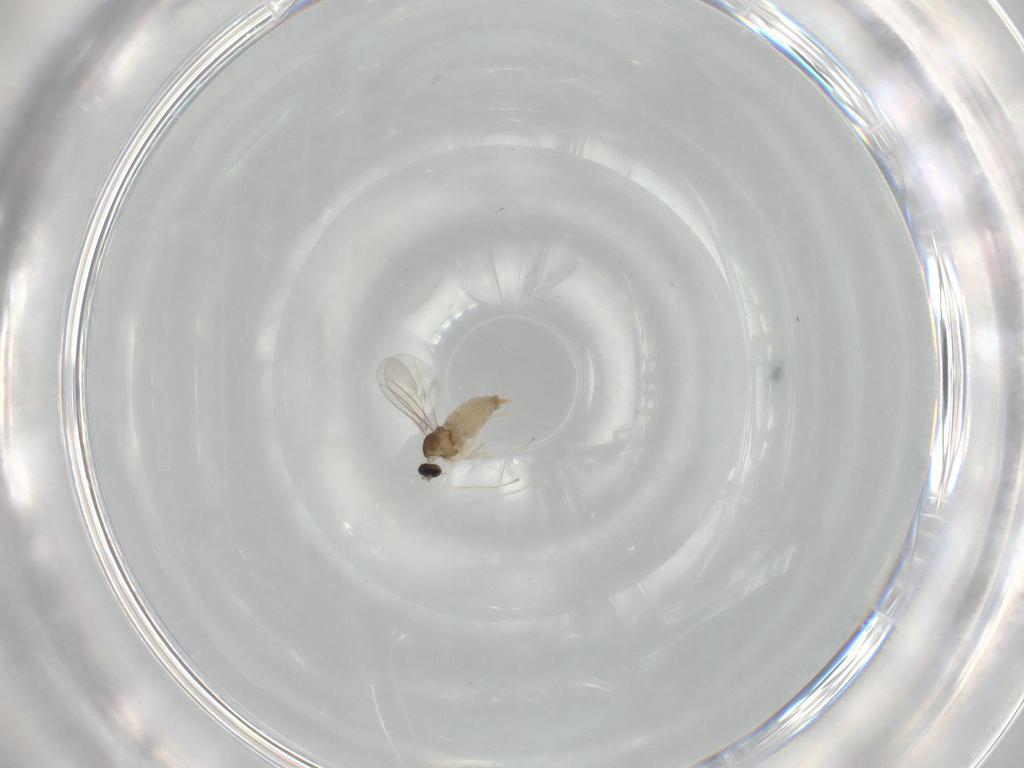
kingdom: Animalia
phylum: Arthropoda
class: Insecta
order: Diptera
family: Cecidomyiidae
